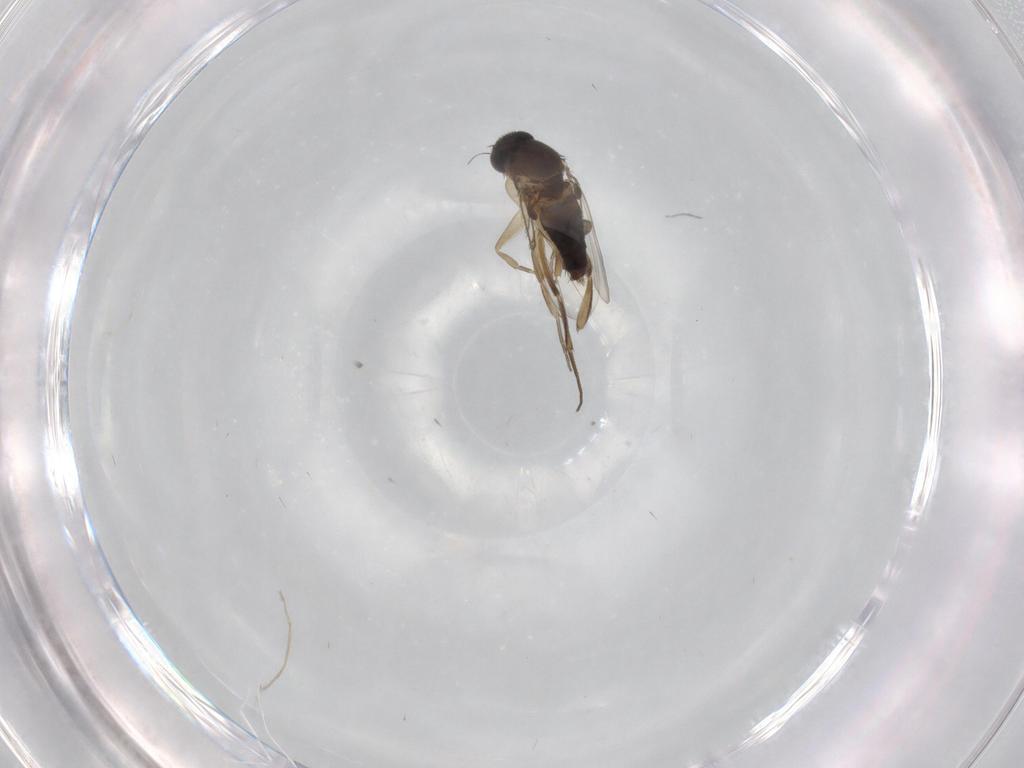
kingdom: Animalia
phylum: Arthropoda
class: Insecta
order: Diptera
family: Phoridae
